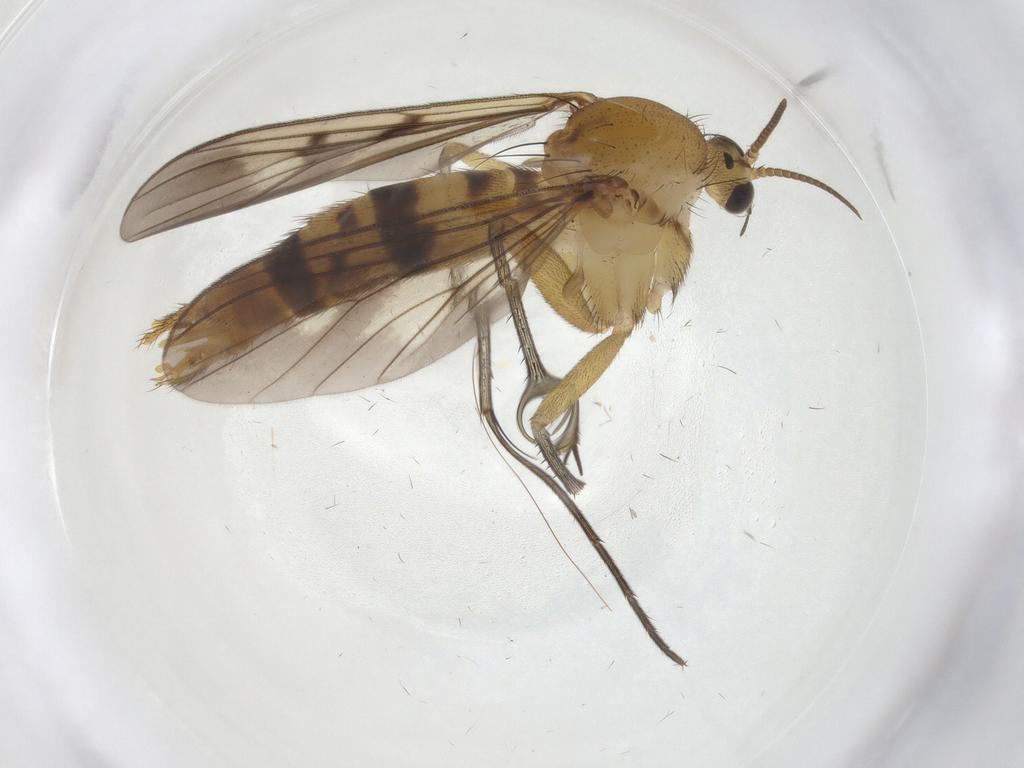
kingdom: Animalia
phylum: Arthropoda
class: Insecta
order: Diptera
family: Mycetophilidae
